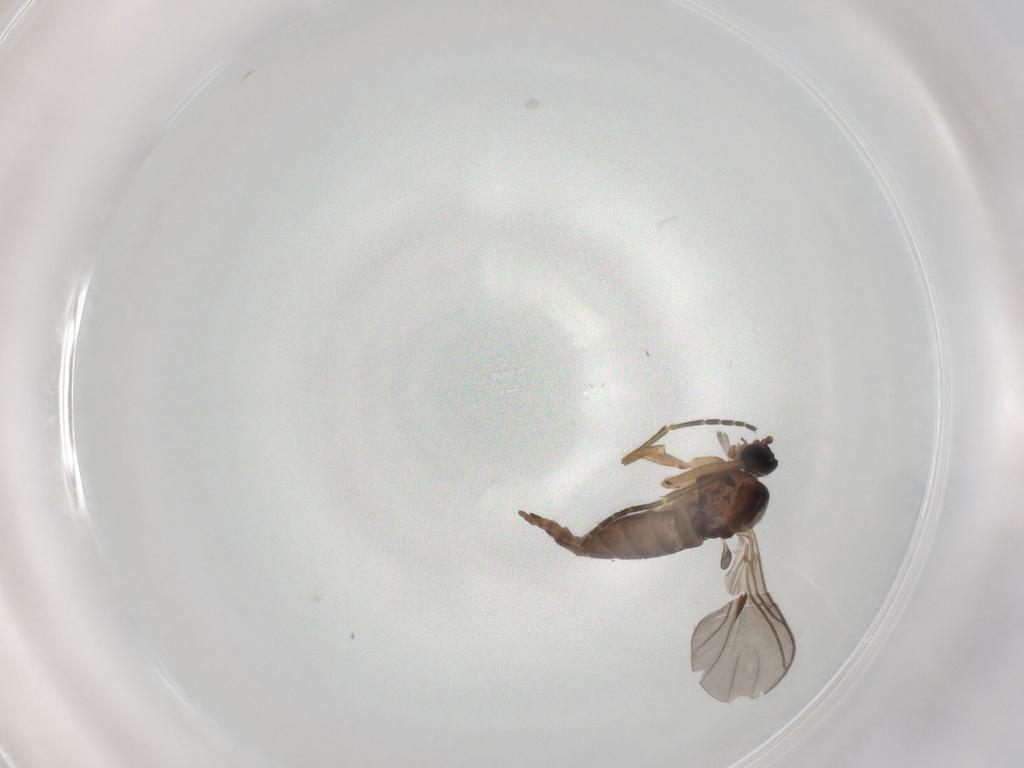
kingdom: Animalia
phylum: Arthropoda
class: Insecta
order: Diptera
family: Sciaridae
